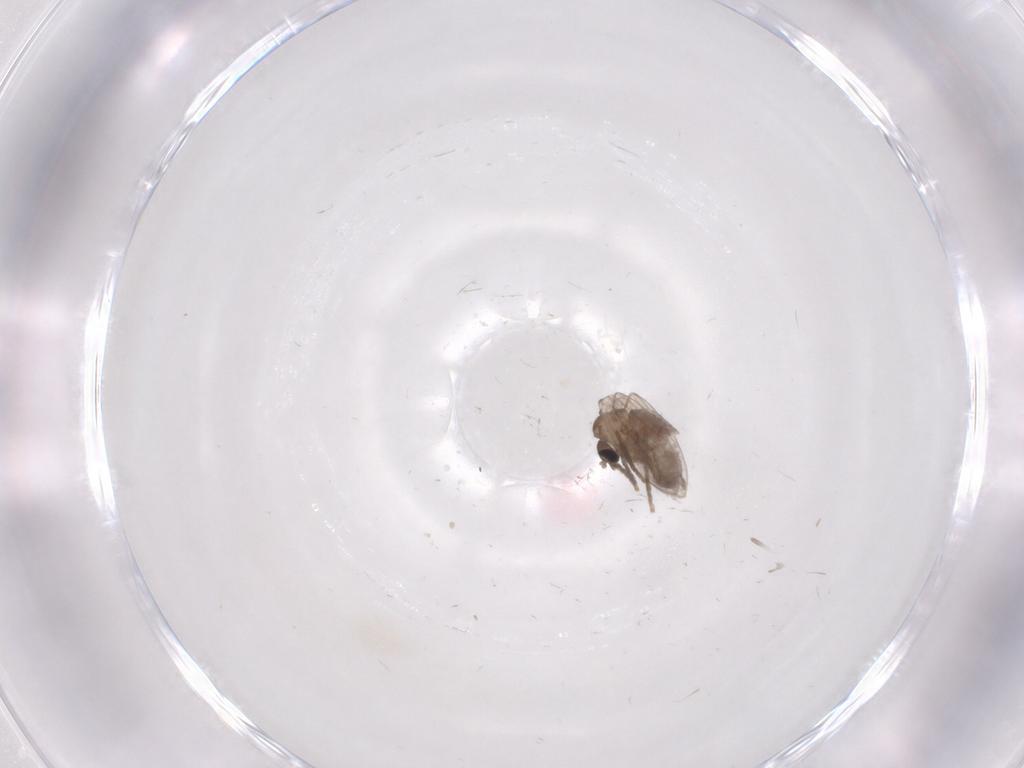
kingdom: Animalia
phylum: Arthropoda
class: Insecta
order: Diptera
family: Psychodidae
